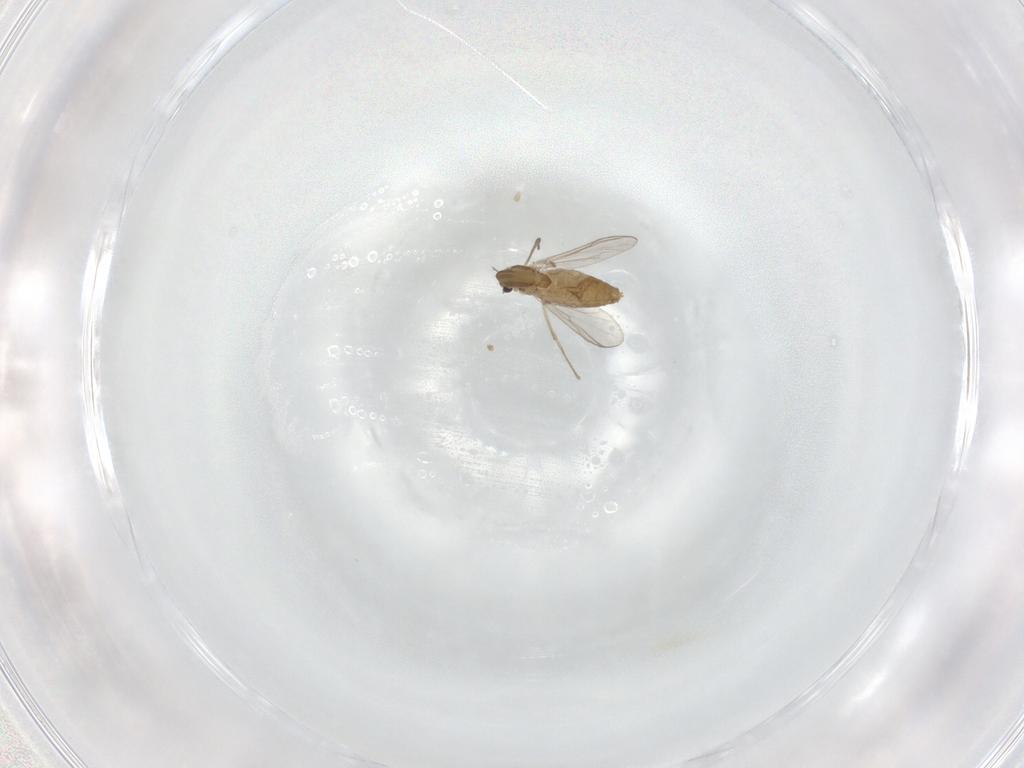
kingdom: Animalia
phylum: Arthropoda
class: Insecta
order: Diptera
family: Chironomidae
